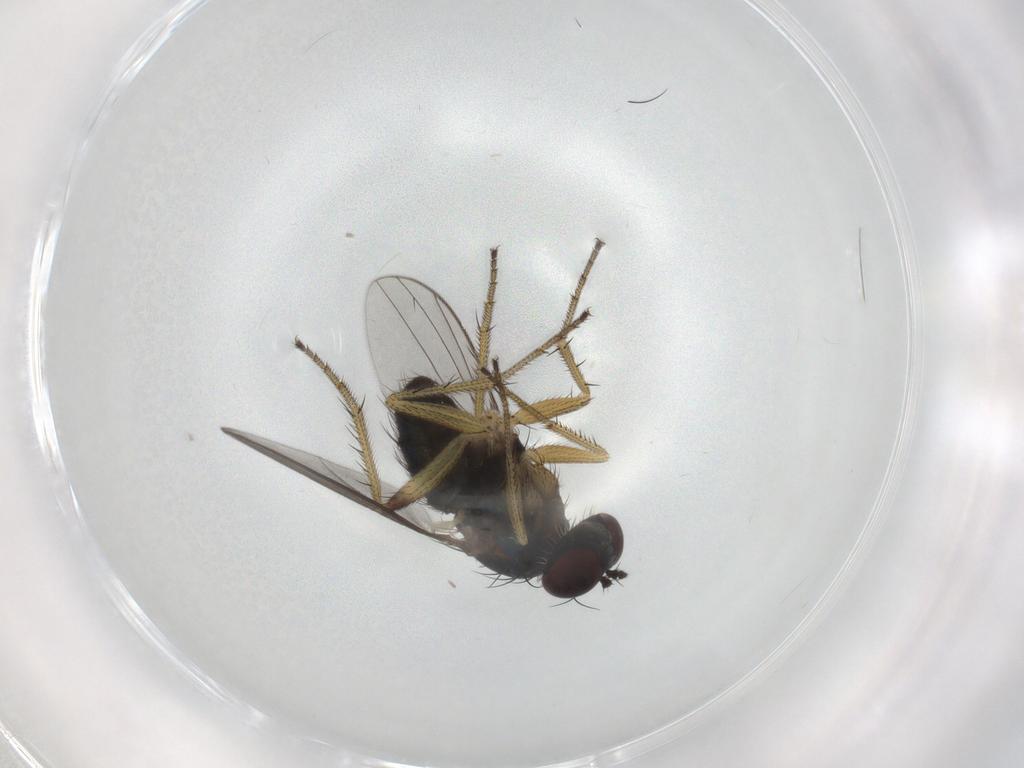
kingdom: Animalia
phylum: Arthropoda
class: Insecta
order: Diptera
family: Dolichopodidae
